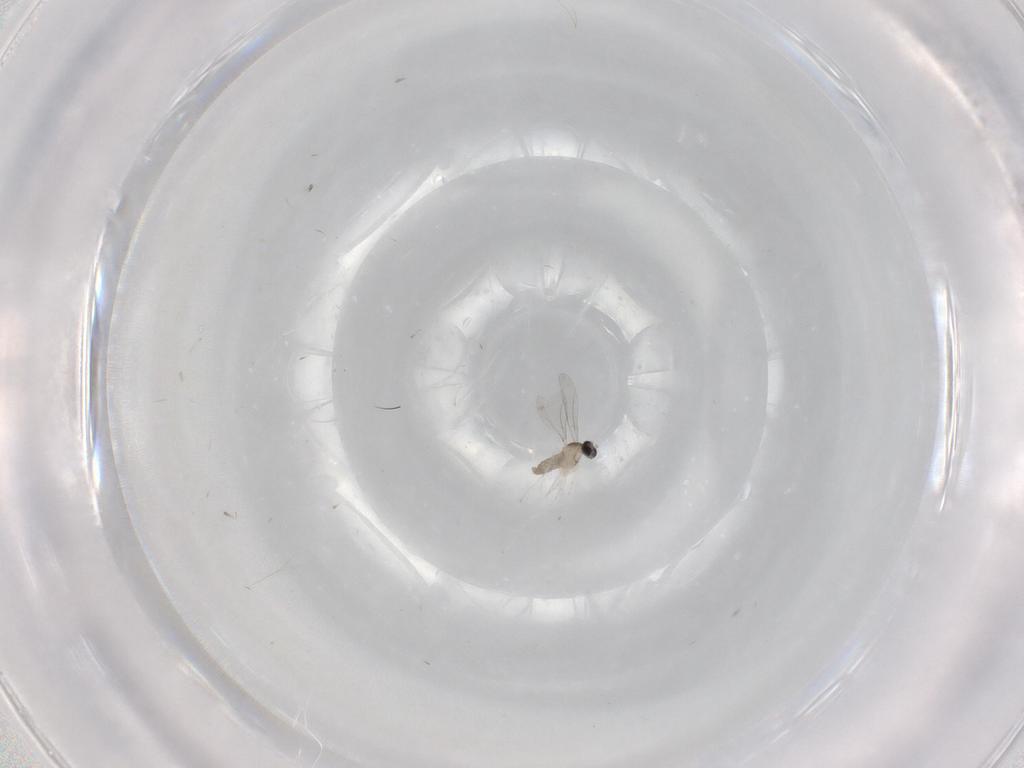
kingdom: Animalia
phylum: Arthropoda
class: Insecta
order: Diptera
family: Cecidomyiidae
